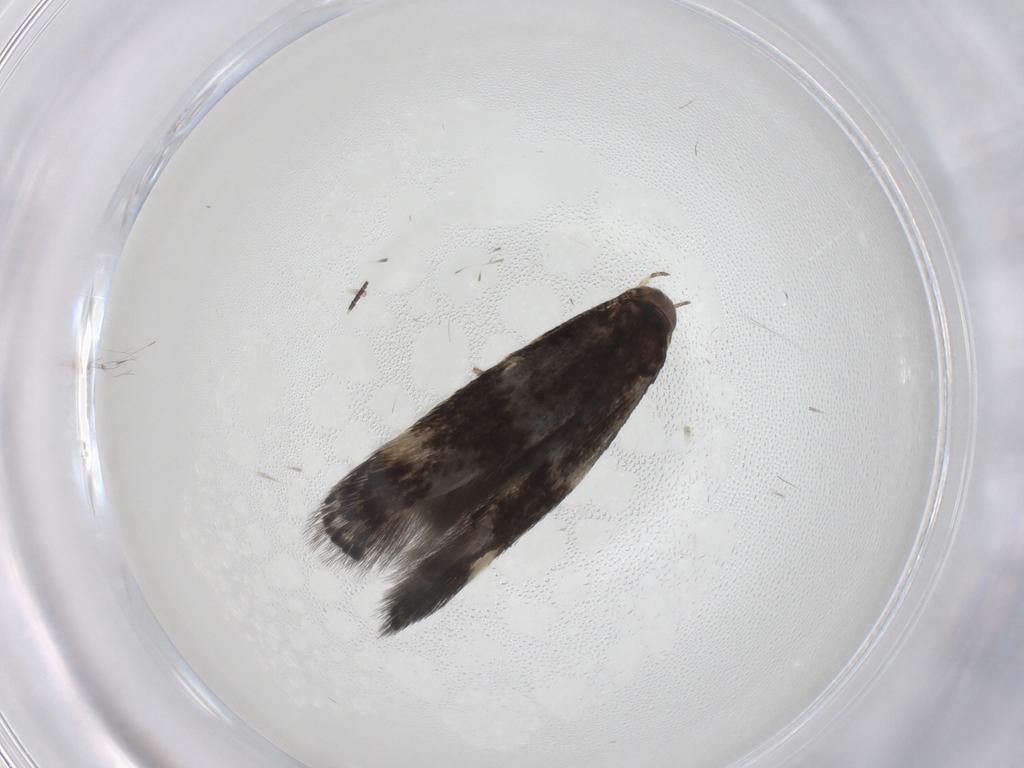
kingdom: Animalia
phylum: Arthropoda
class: Insecta
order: Lepidoptera
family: Elachistidae
